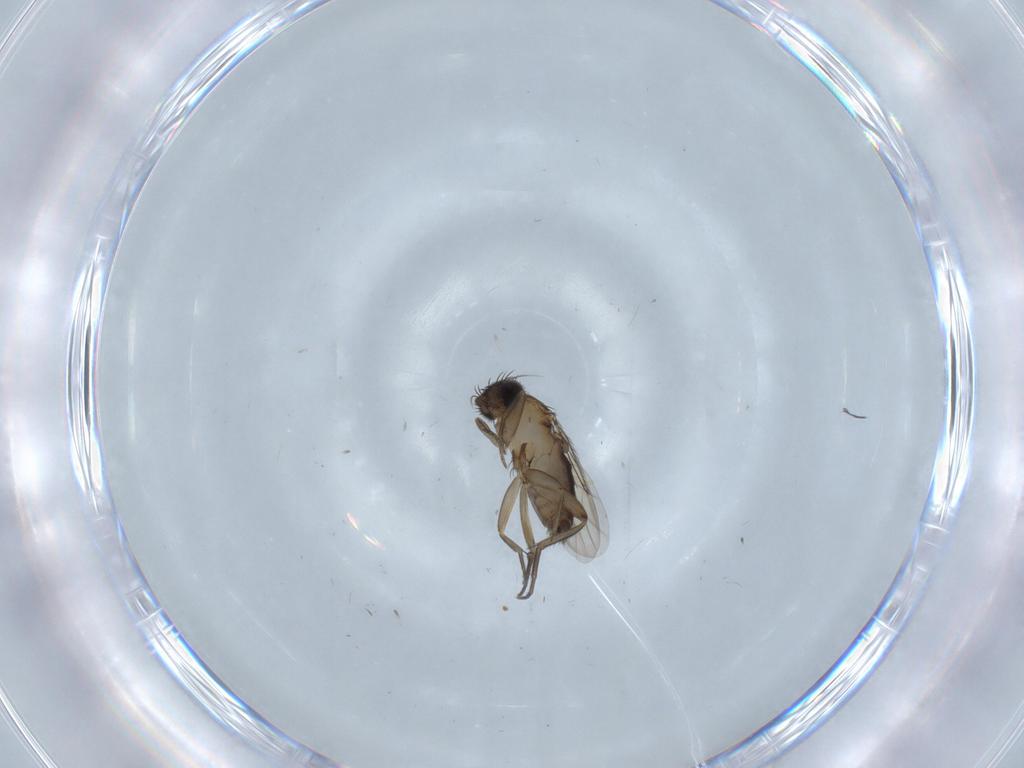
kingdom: Animalia
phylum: Arthropoda
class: Insecta
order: Diptera
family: Phoridae
